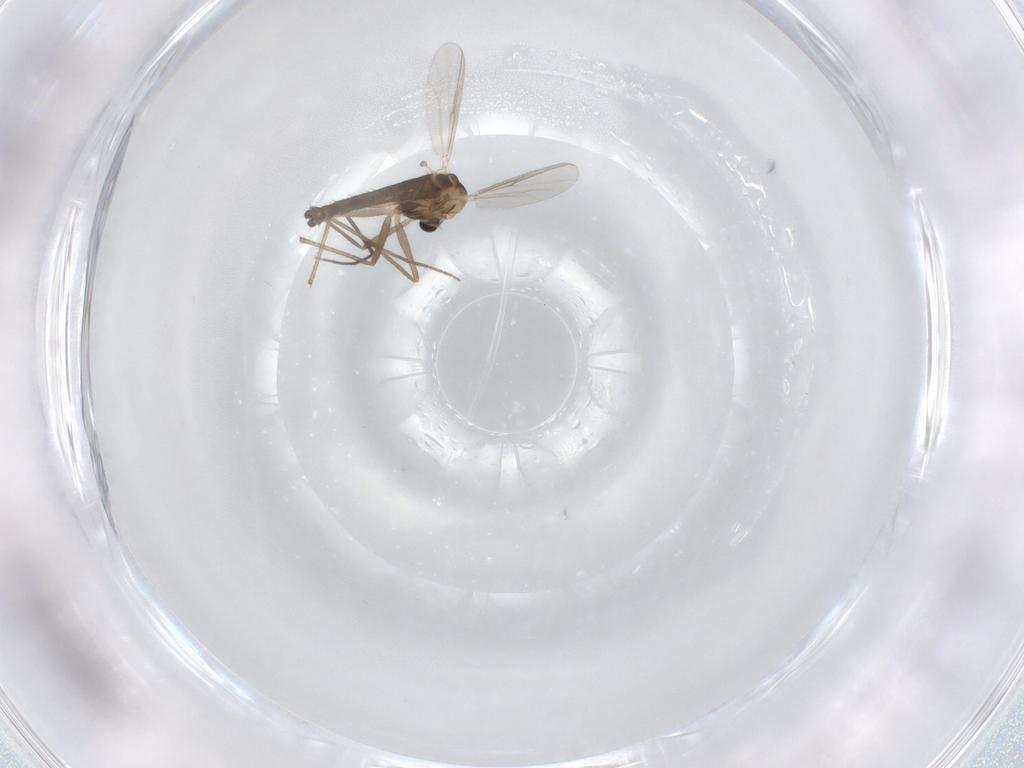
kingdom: Animalia
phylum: Arthropoda
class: Insecta
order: Diptera
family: Chironomidae
